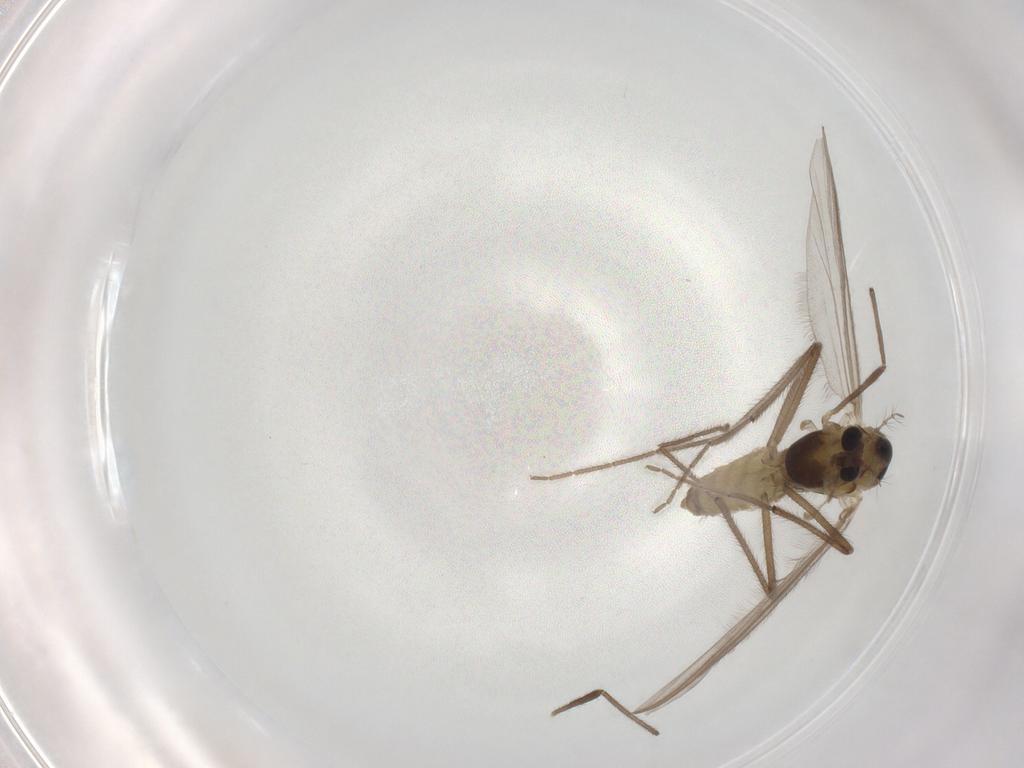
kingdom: Animalia
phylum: Arthropoda
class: Insecta
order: Diptera
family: Chironomidae
